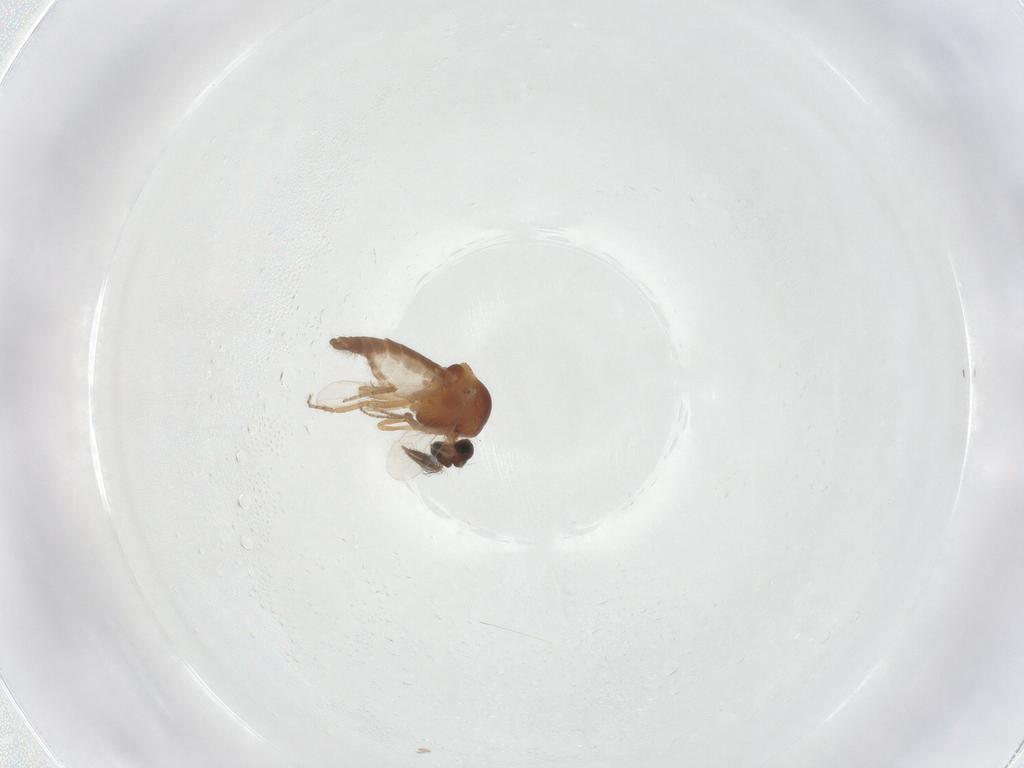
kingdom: Animalia
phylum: Arthropoda
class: Insecta
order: Diptera
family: Ceratopogonidae
